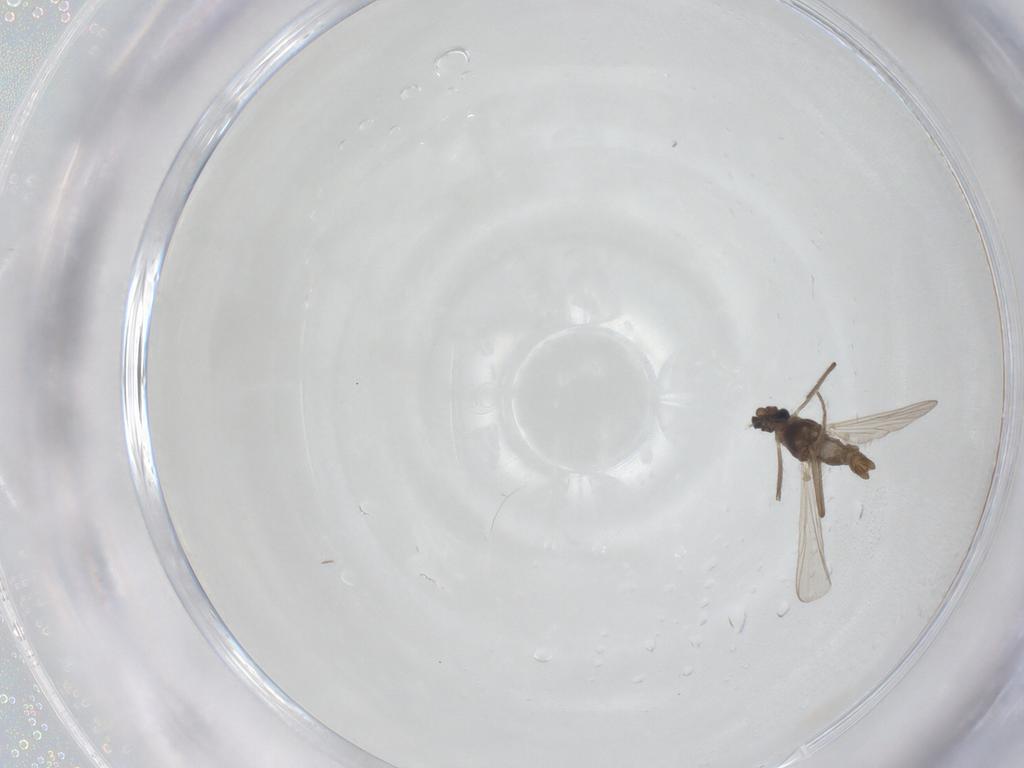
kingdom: Animalia
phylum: Arthropoda
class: Insecta
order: Diptera
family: Chironomidae
